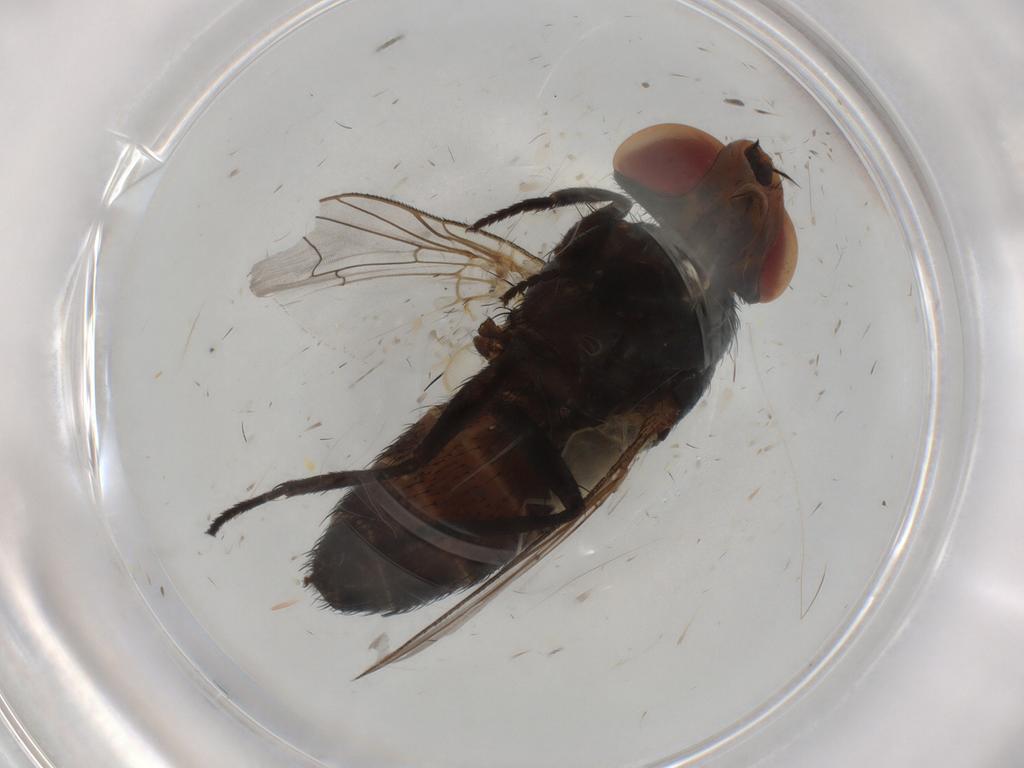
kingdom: Animalia
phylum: Arthropoda
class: Insecta
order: Diptera
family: Sarcophagidae
